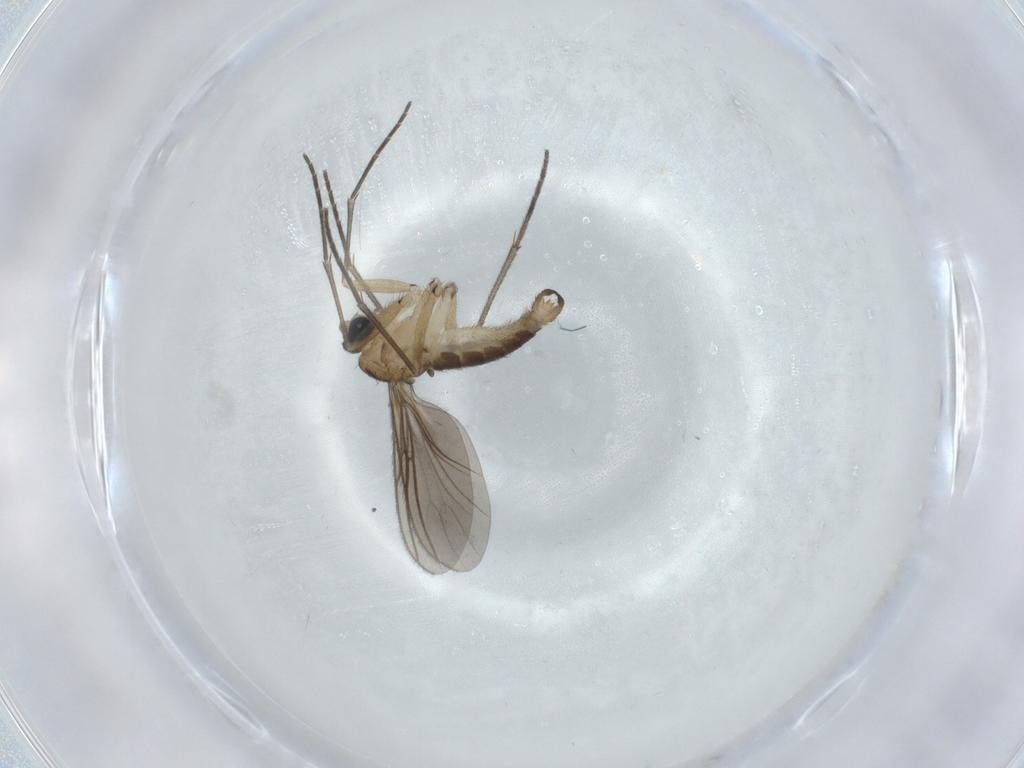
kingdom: Animalia
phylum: Arthropoda
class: Insecta
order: Diptera
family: Sciaridae
